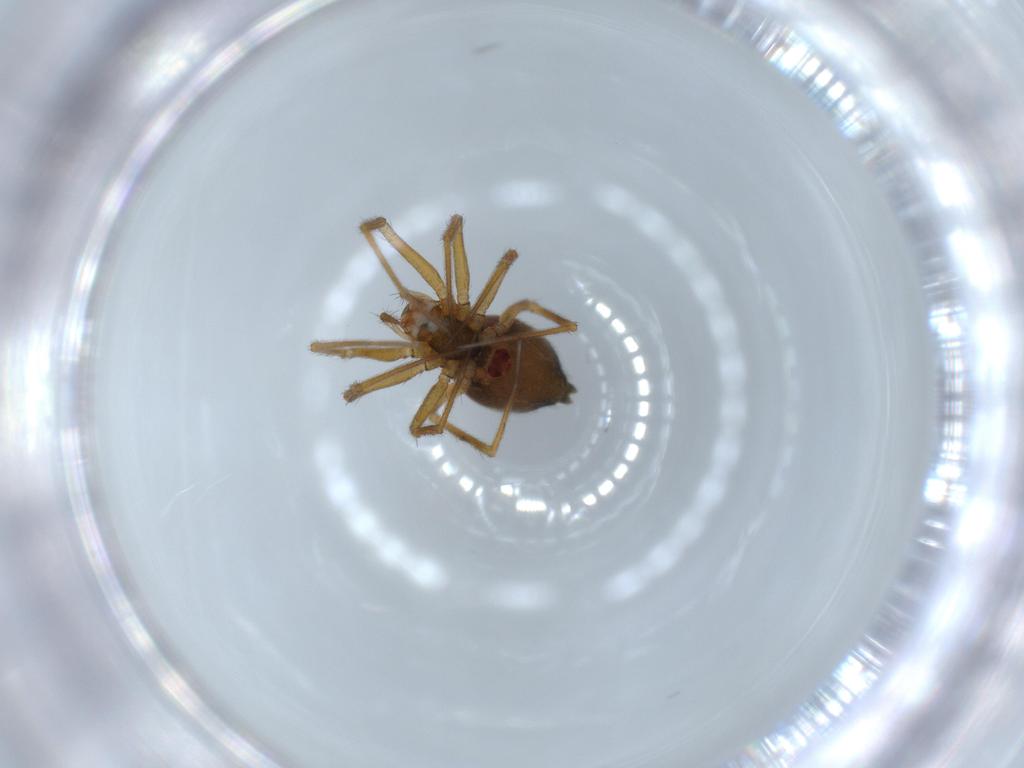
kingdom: Animalia
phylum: Arthropoda
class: Arachnida
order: Araneae
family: Linyphiidae
